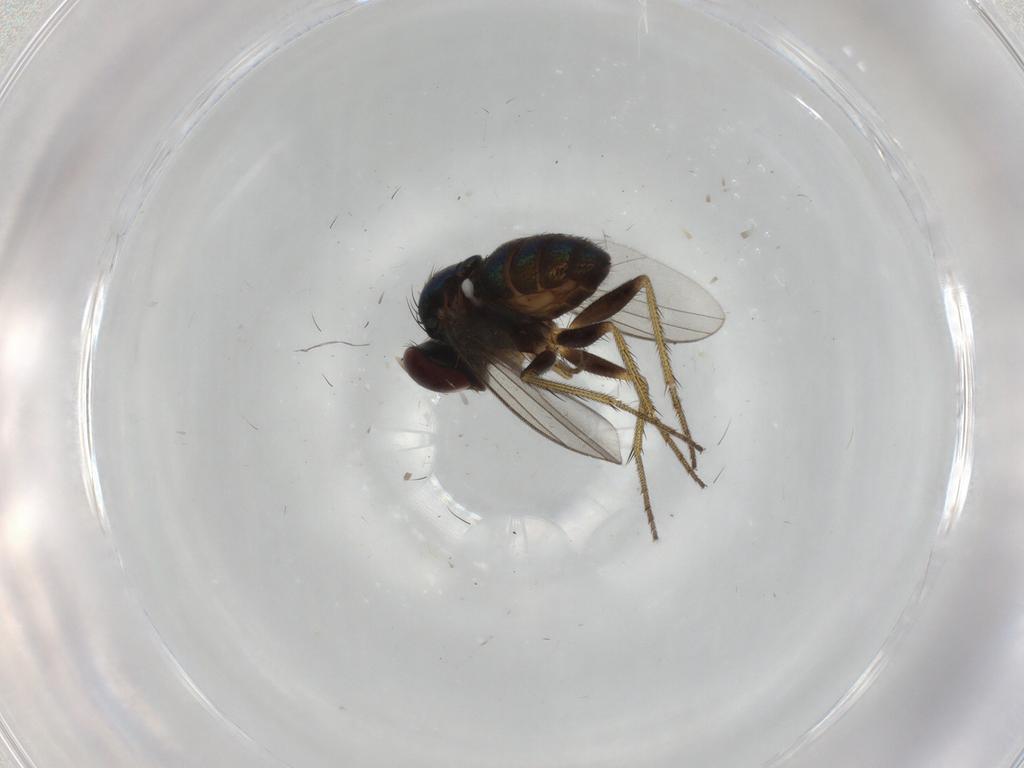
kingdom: Animalia
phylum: Arthropoda
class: Insecta
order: Diptera
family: Dolichopodidae
